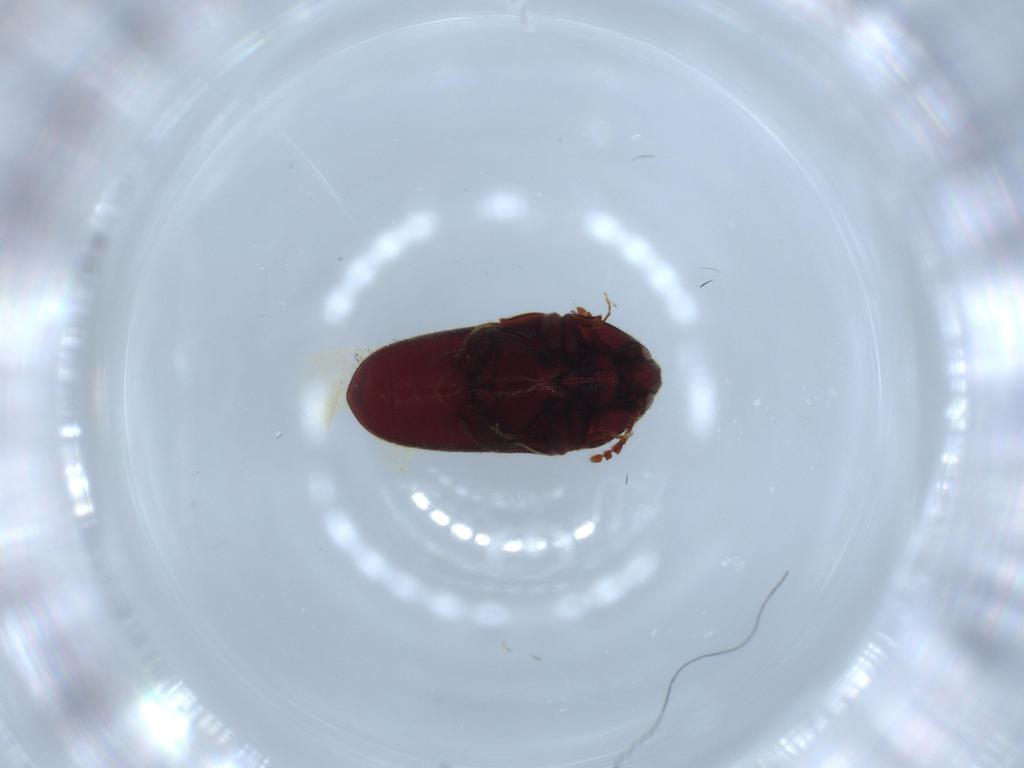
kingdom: Animalia
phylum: Arthropoda
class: Insecta
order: Coleoptera
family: Throscidae
